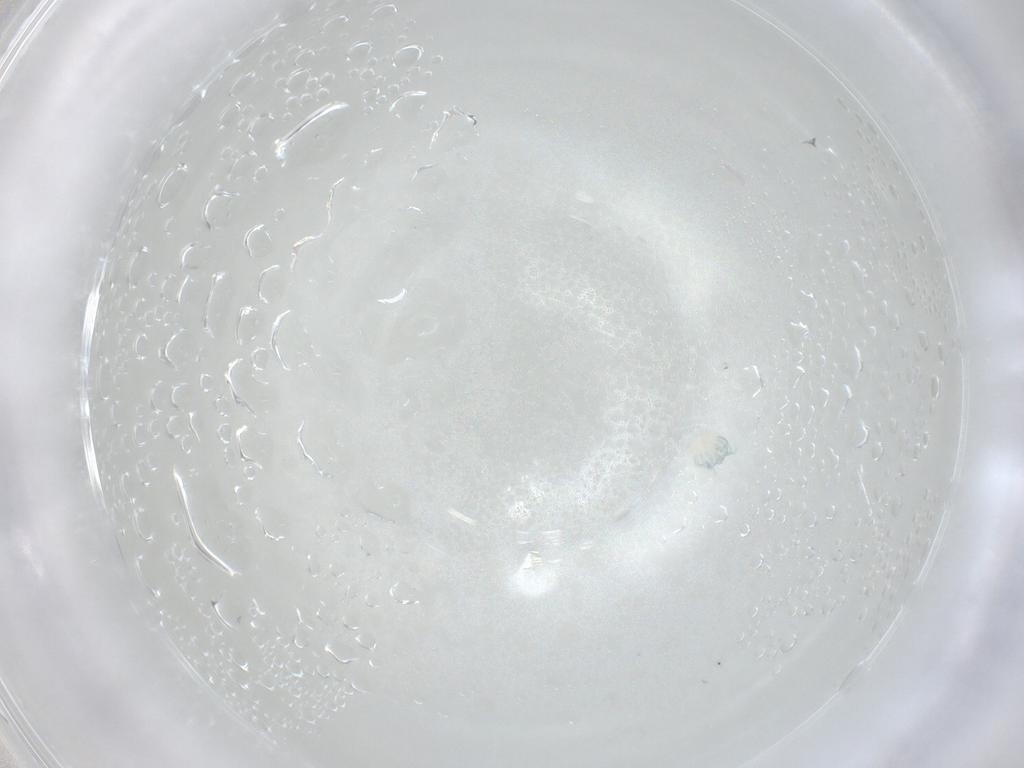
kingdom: Animalia
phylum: Arthropoda
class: Arachnida
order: Trombidiformes
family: Arrenuridae
